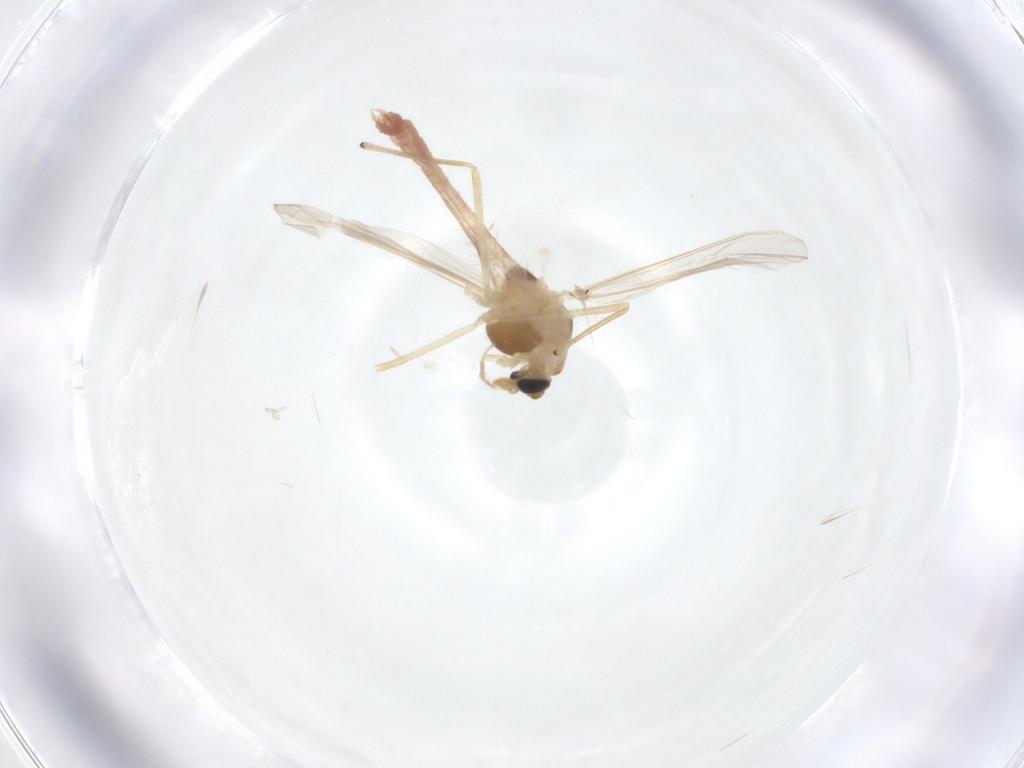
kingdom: Animalia
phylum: Arthropoda
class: Insecta
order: Diptera
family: Chironomidae
